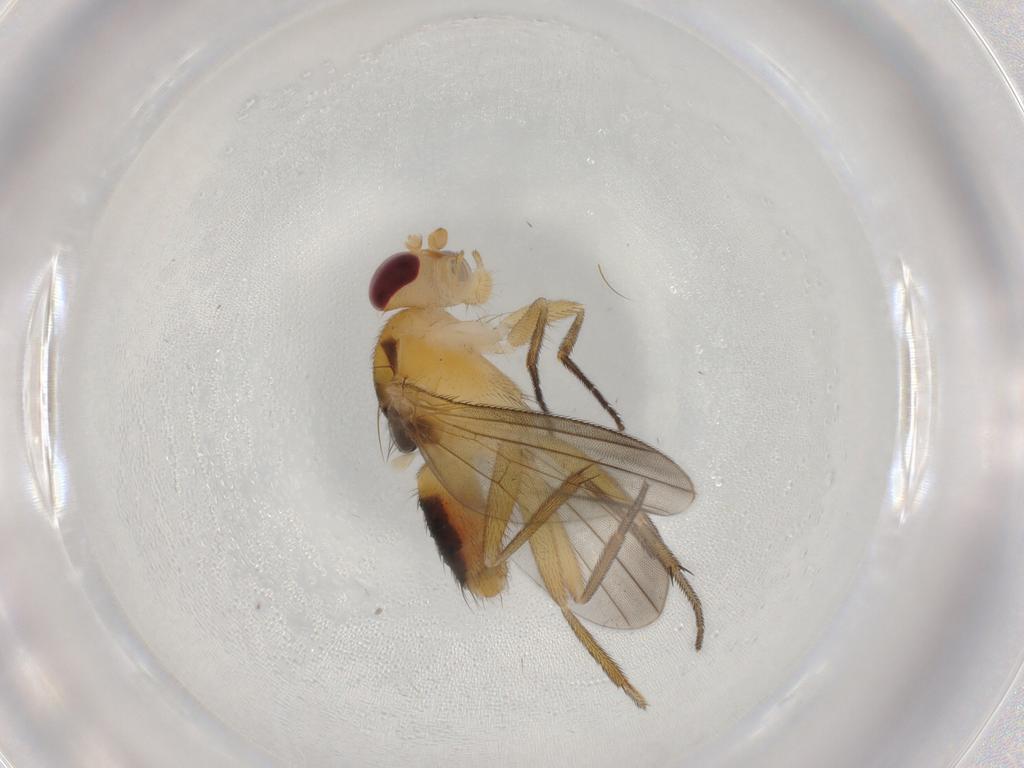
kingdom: Animalia
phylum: Arthropoda
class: Insecta
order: Diptera
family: Clusiidae
